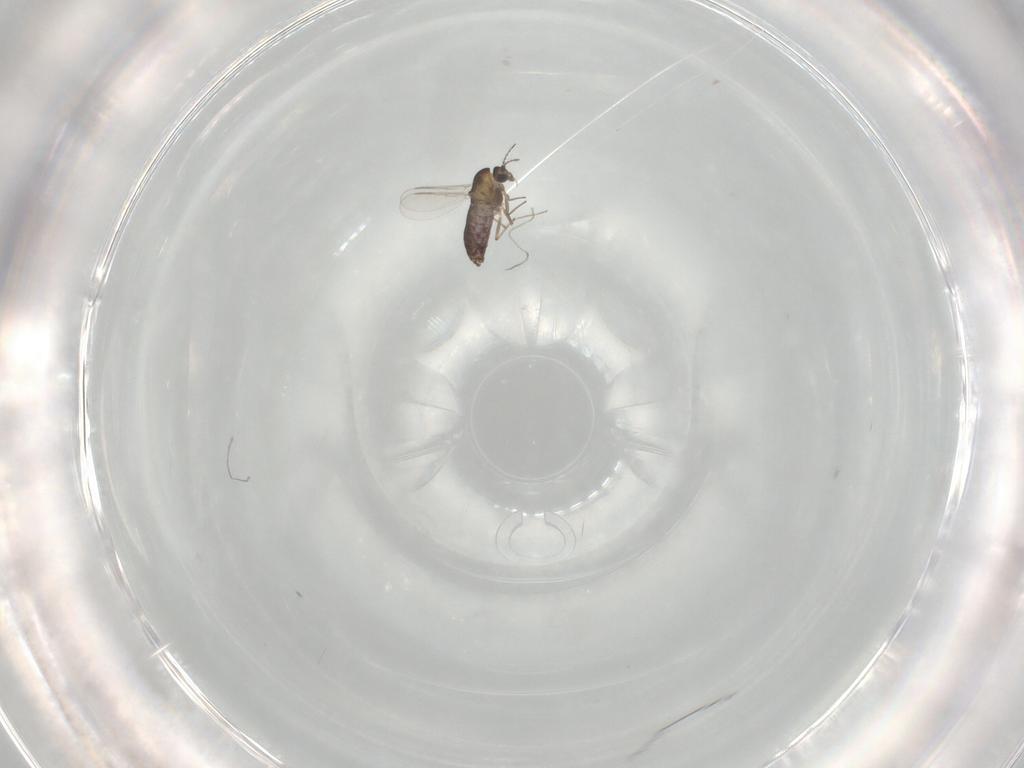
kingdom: Animalia
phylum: Arthropoda
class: Insecta
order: Diptera
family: Chironomidae
